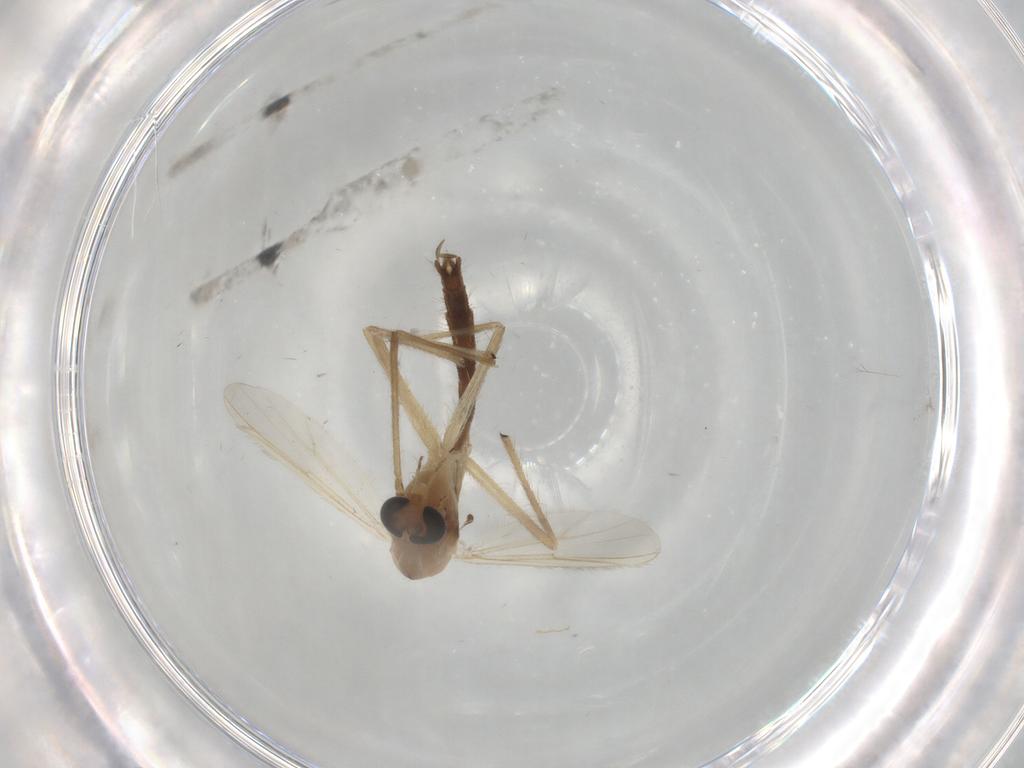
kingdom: Animalia
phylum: Arthropoda
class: Insecta
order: Diptera
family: Chironomidae
